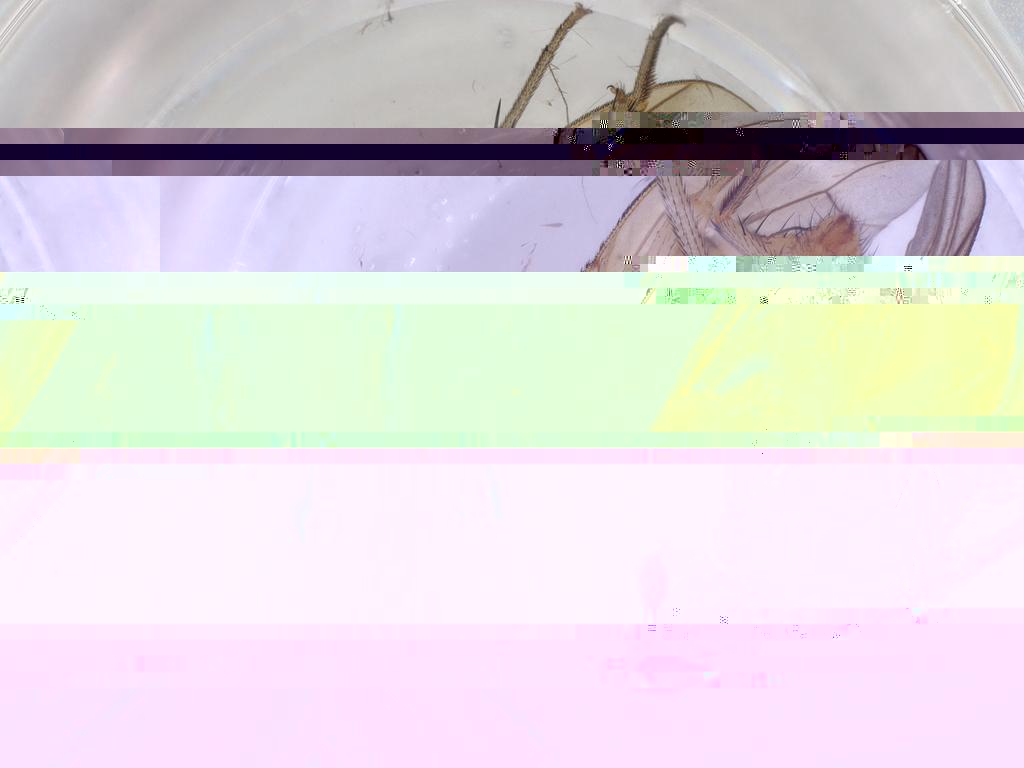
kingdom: Animalia
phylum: Arthropoda
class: Insecta
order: Diptera
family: Ceratopogonidae
